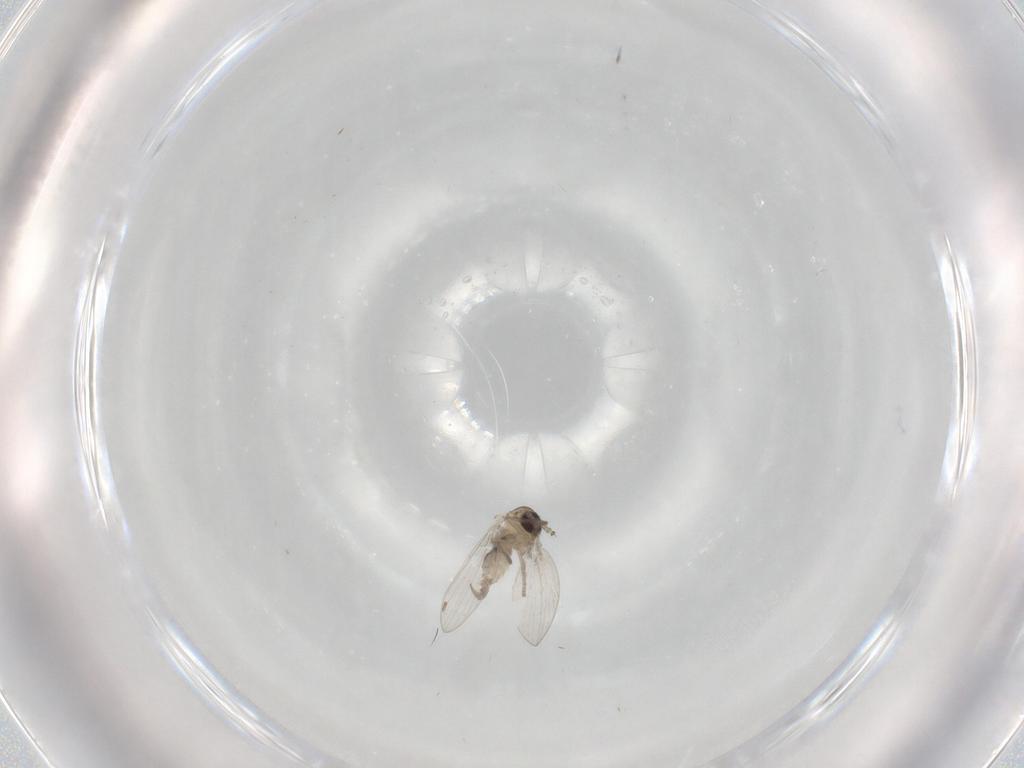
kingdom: Animalia
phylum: Arthropoda
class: Insecta
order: Diptera
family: Psychodidae
